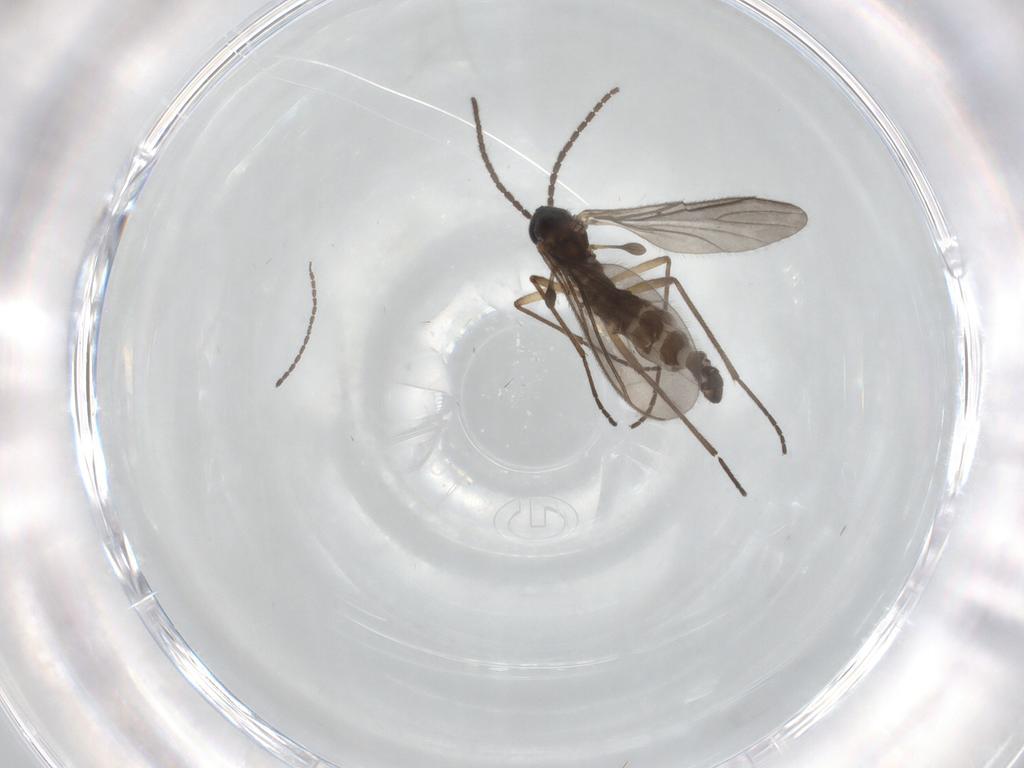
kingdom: Animalia
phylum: Arthropoda
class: Insecta
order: Diptera
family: Sciaridae
